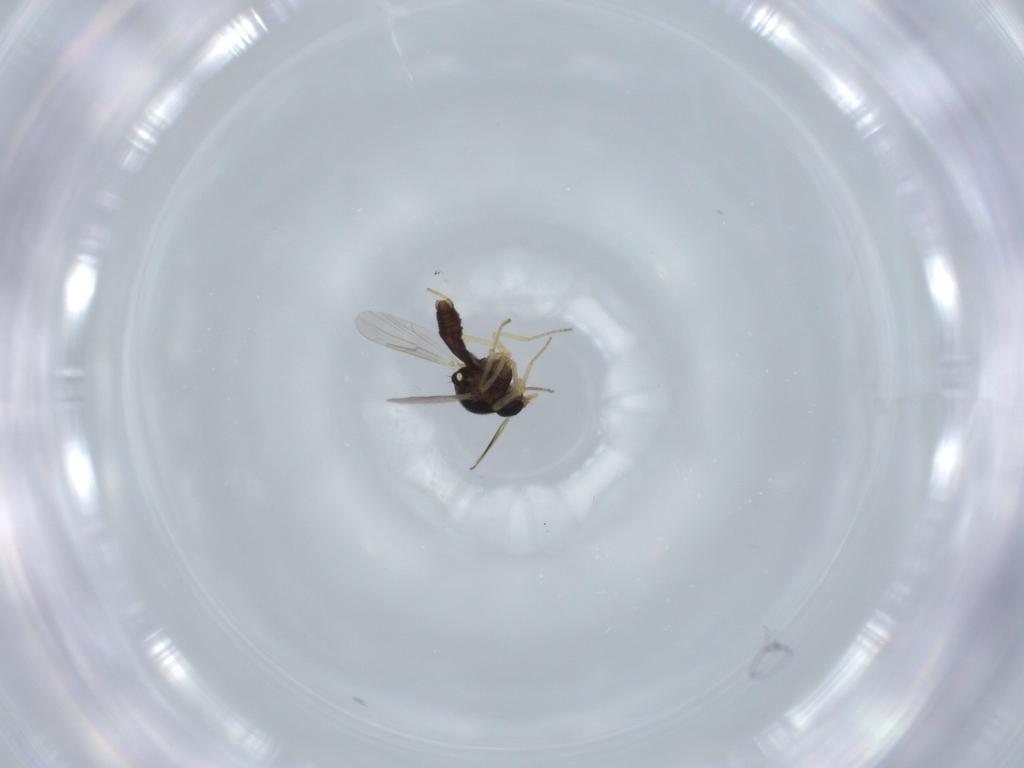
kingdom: Animalia
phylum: Arthropoda
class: Insecta
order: Diptera
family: Ceratopogonidae
